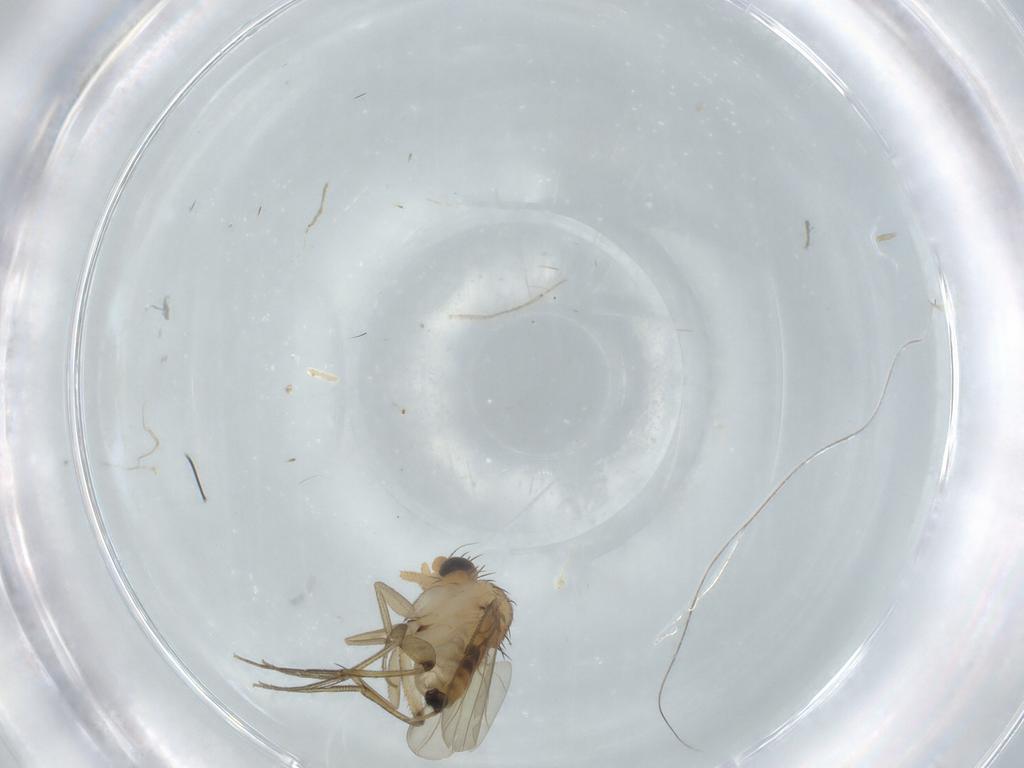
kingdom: Animalia
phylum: Arthropoda
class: Insecta
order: Diptera
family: Phoridae
